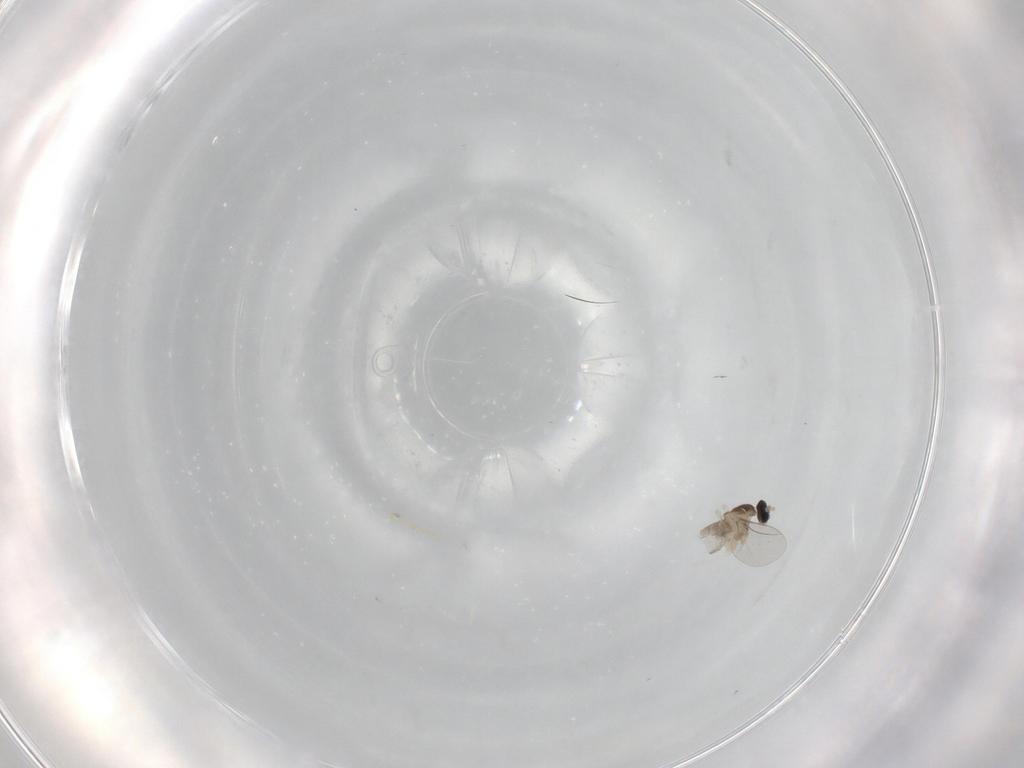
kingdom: Animalia
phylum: Arthropoda
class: Insecta
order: Diptera
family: Cecidomyiidae
